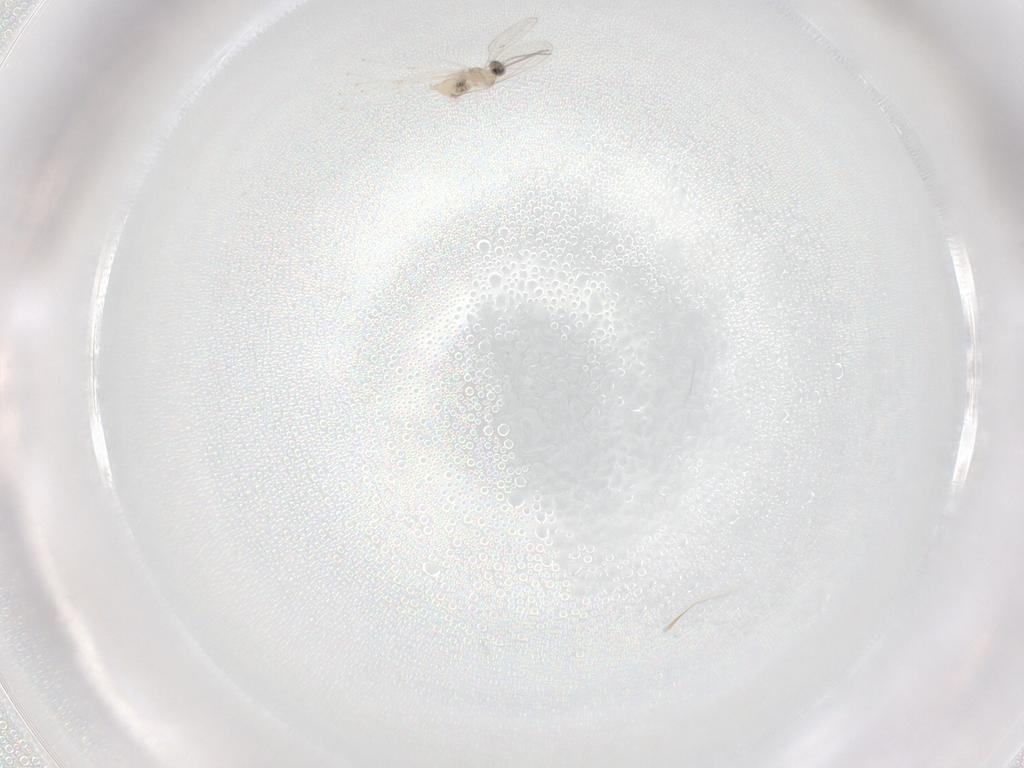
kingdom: Animalia
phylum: Arthropoda
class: Insecta
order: Diptera
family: Cecidomyiidae
